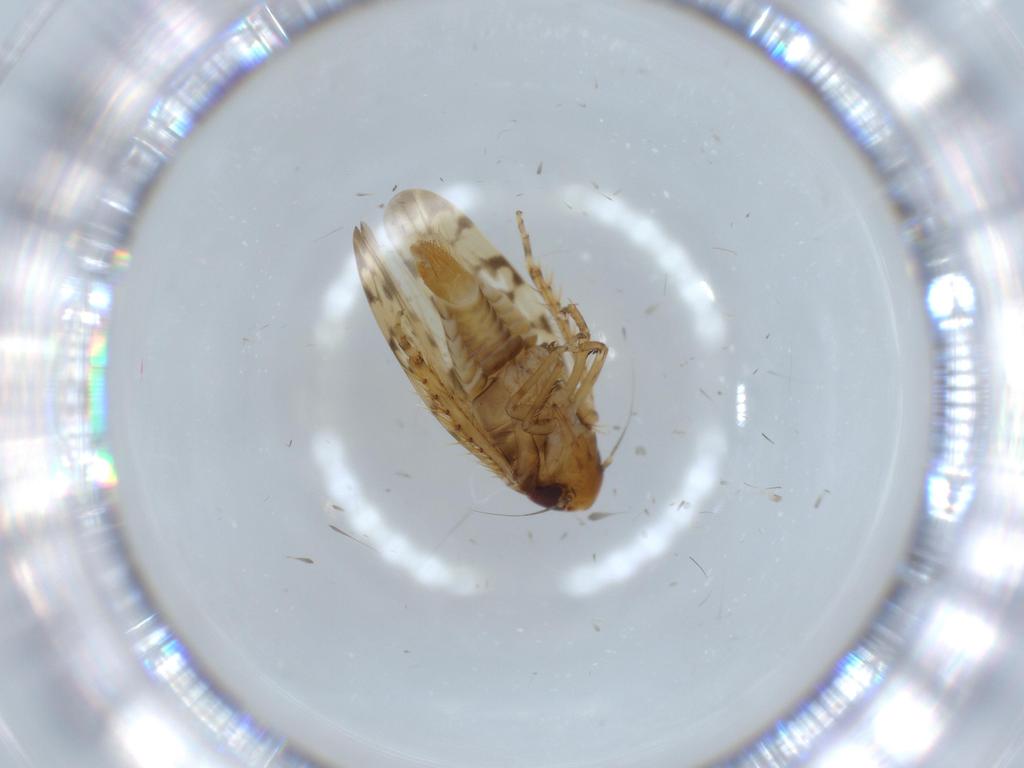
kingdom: Animalia
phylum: Arthropoda
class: Insecta
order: Hemiptera
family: Cicadellidae
